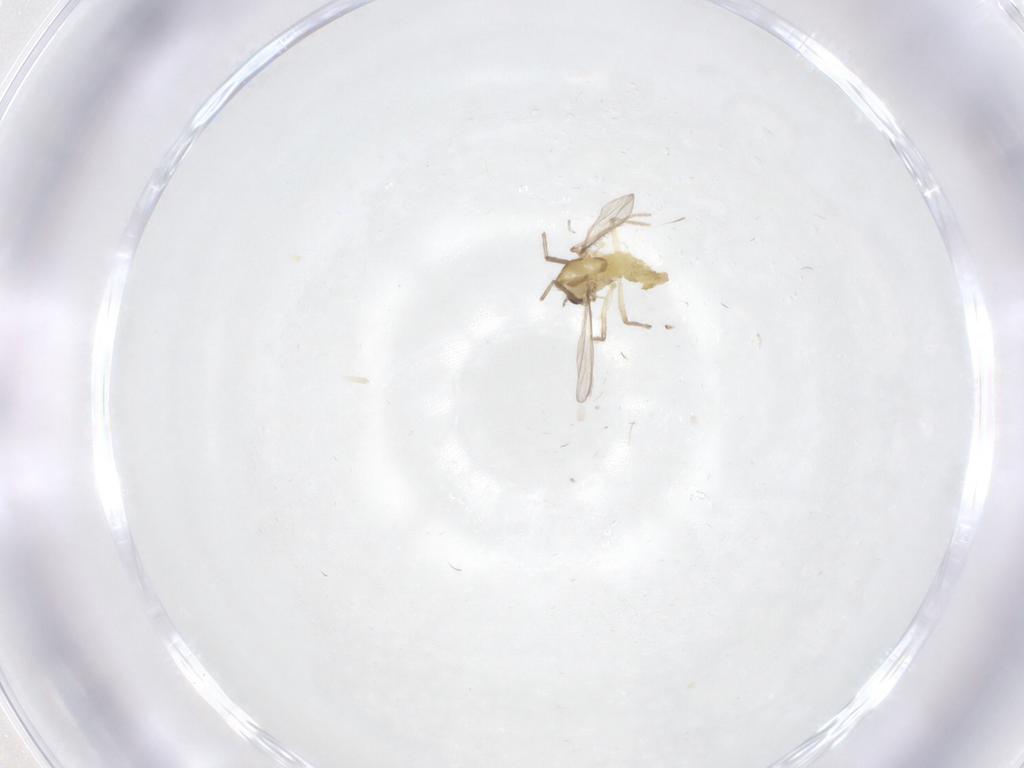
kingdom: Animalia
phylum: Arthropoda
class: Insecta
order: Diptera
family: Chironomidae
